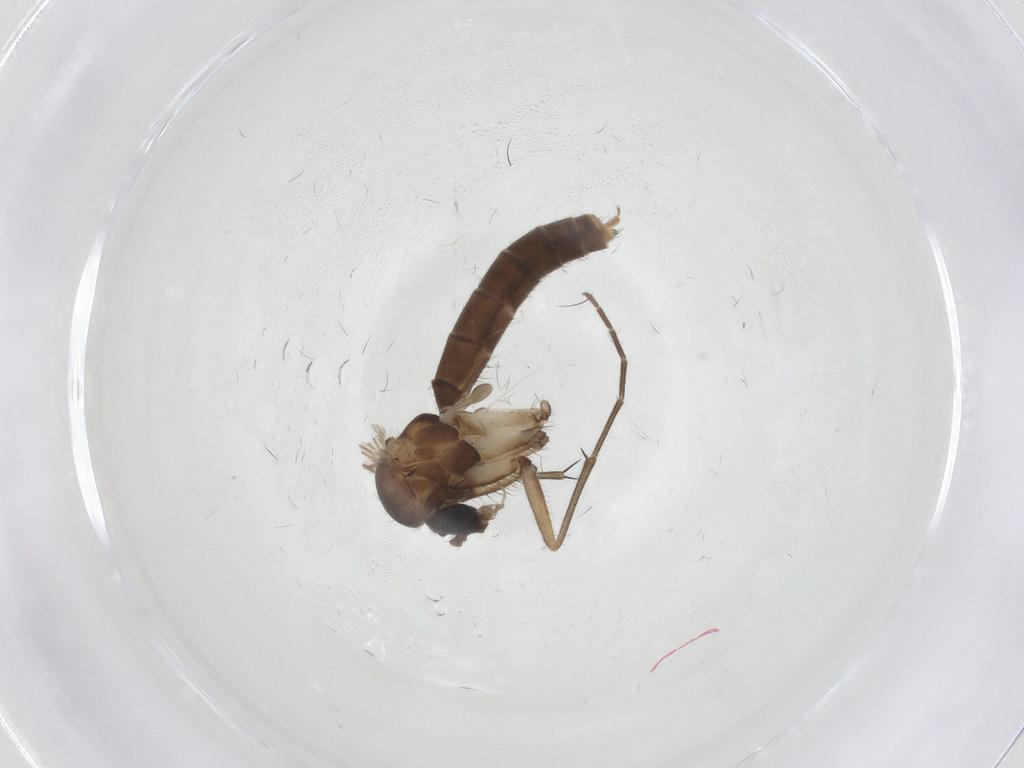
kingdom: Animalia
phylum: Arthropoda
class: Insecta
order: Diptera
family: Mycetophilidae
